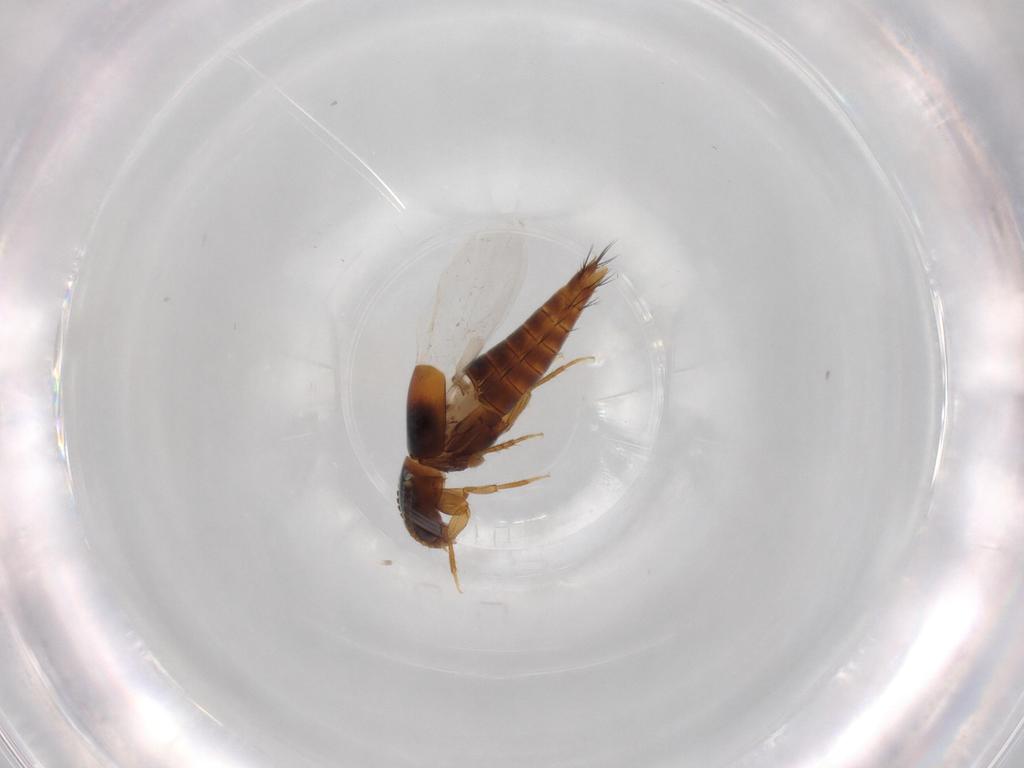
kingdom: Animalia
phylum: Arthropoda
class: Insecta
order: Coleoptera
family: Staphylinidae
